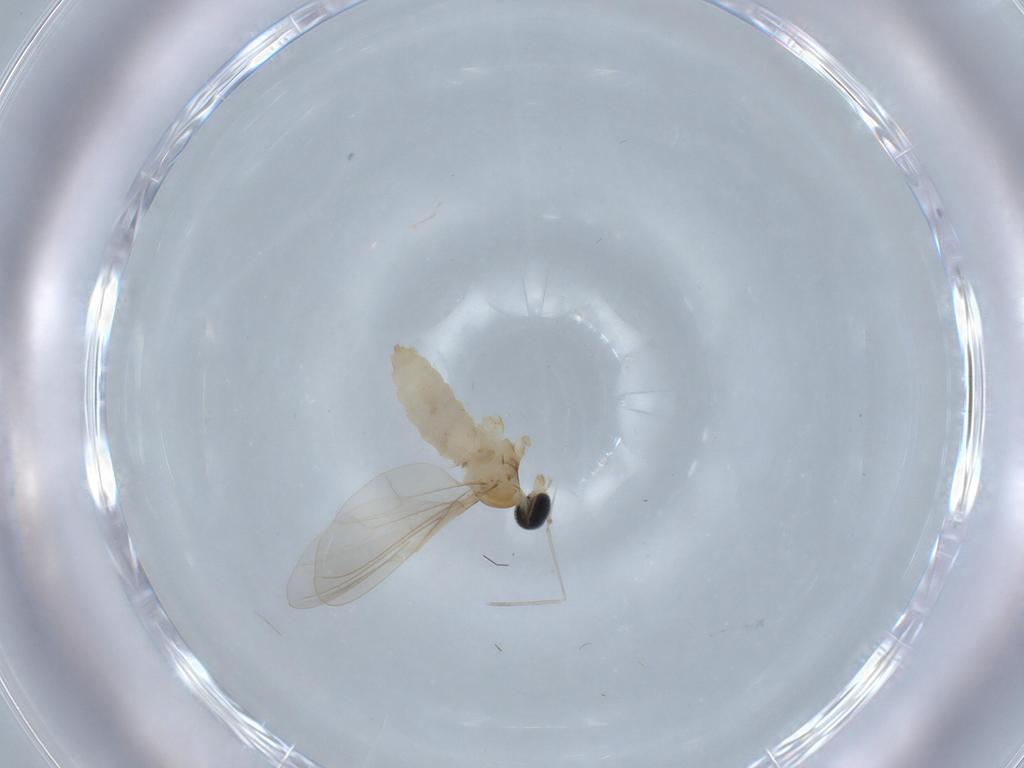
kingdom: Animalia
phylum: Arthropoda
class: Insecta
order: Diptera
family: Cecidomyiidae
